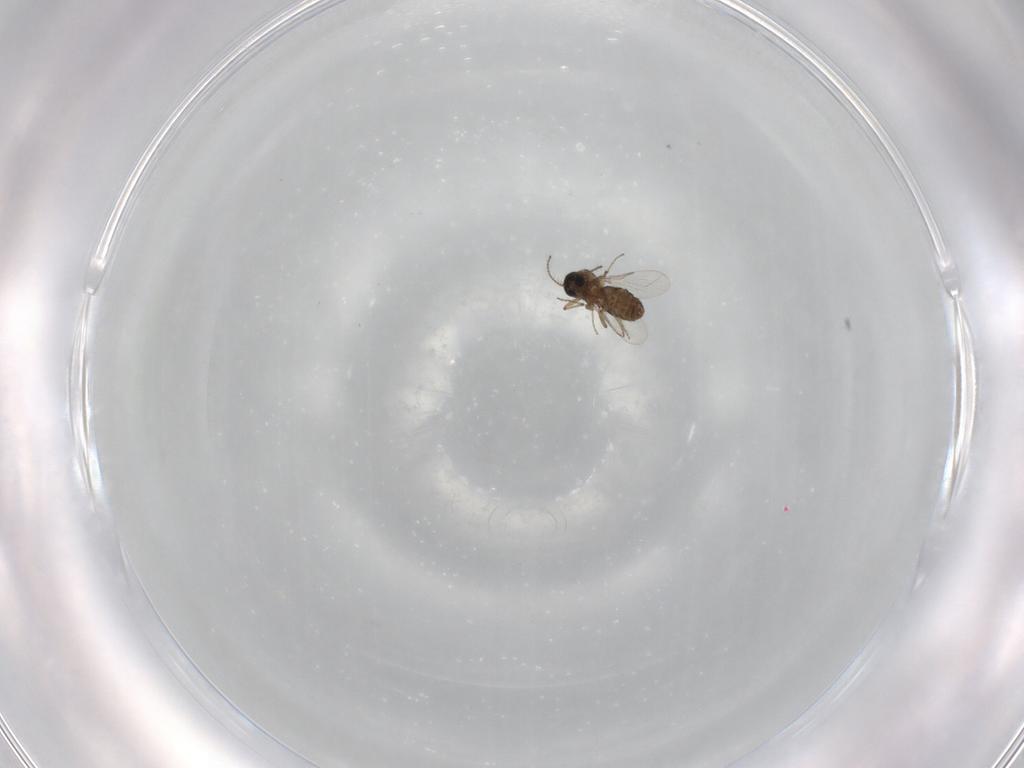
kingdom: Animalia
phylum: Arthropoda
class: Insecta
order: Diptera
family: Ceratopogonidae
